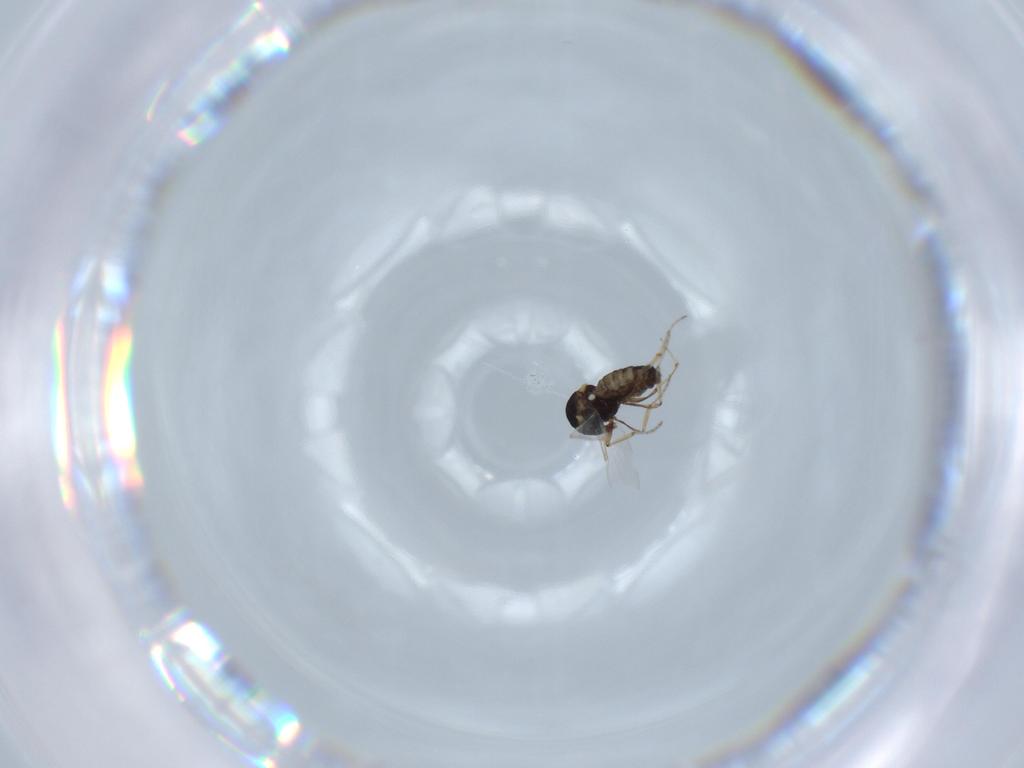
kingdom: Animalia
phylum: Arthropoda
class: Insecta
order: Diptera
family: Ceratopogonidae
